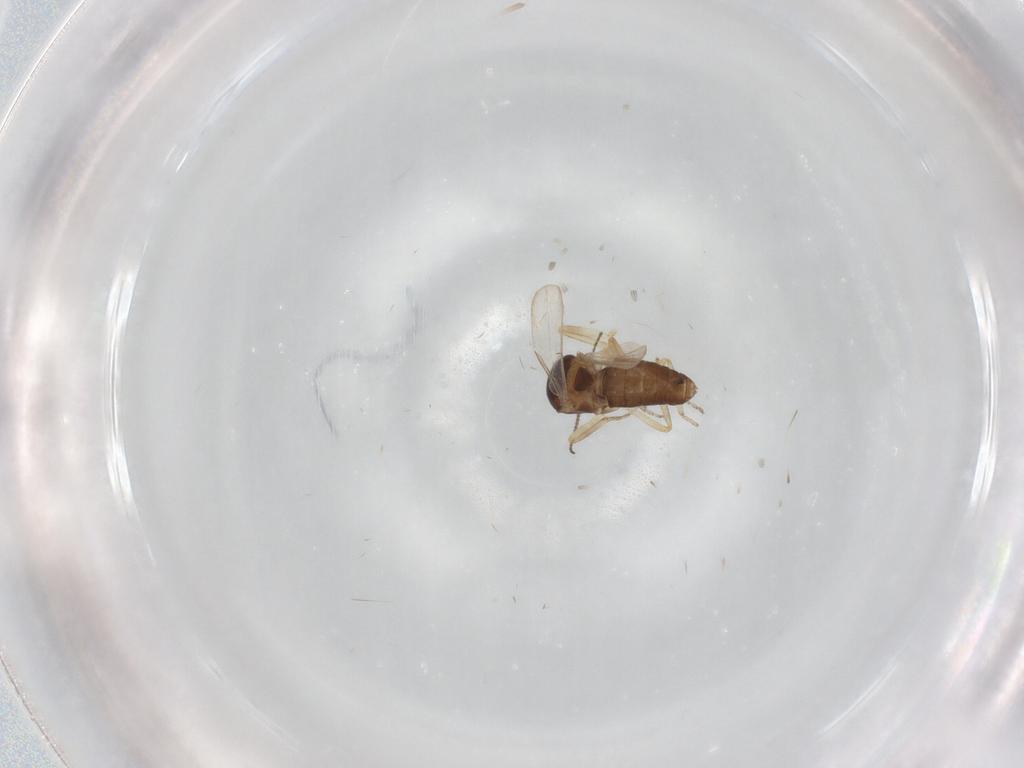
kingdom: Animalia
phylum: Arthropoda
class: Insecta
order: Diptera
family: Ceratopogonidae
